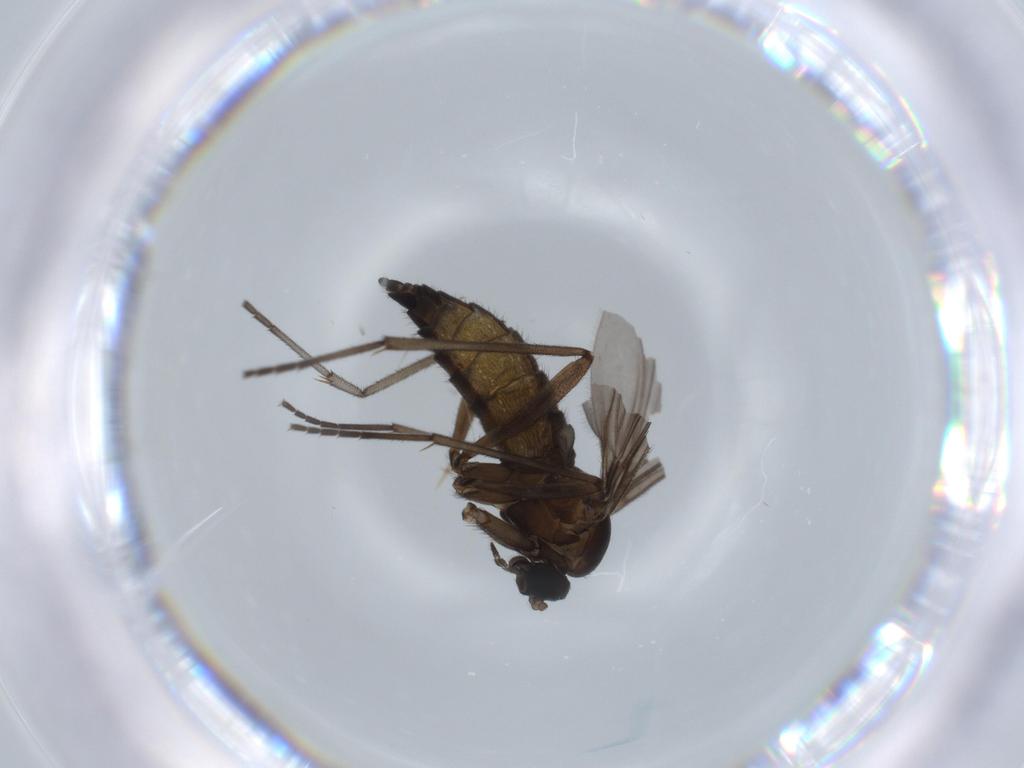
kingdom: Animalia
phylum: Arthropoda
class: Insecta
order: Diptera
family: Sciaridae
